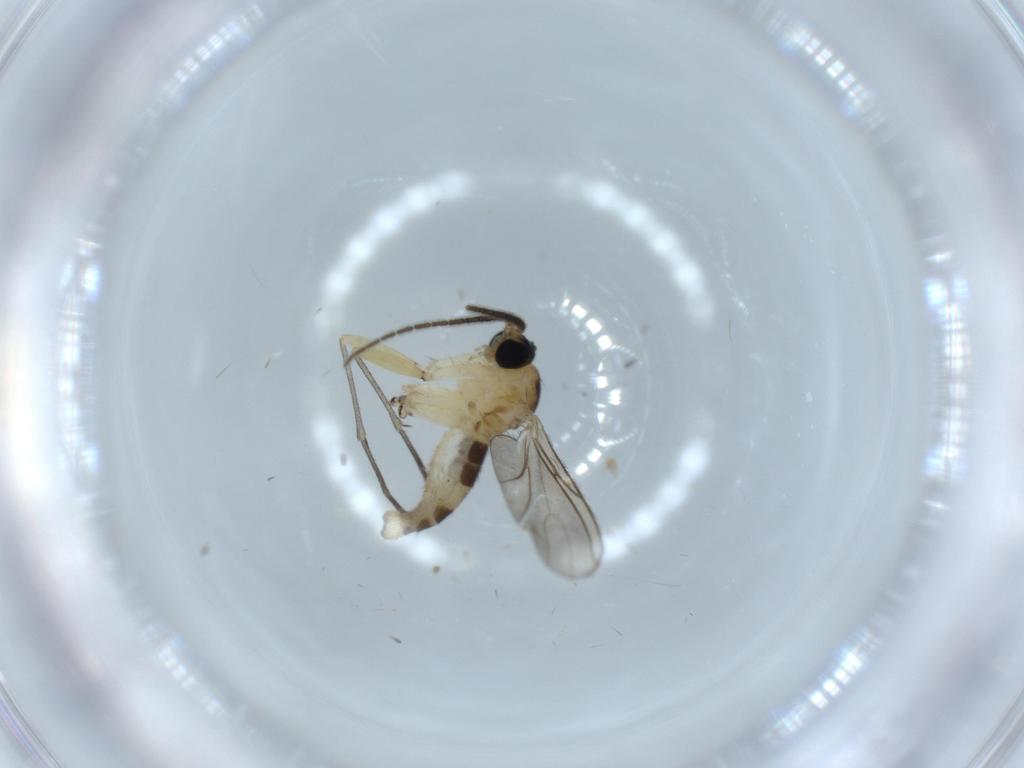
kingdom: Animalia
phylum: Arthropoda
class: Insecta
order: Diptera
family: Sciaridae
